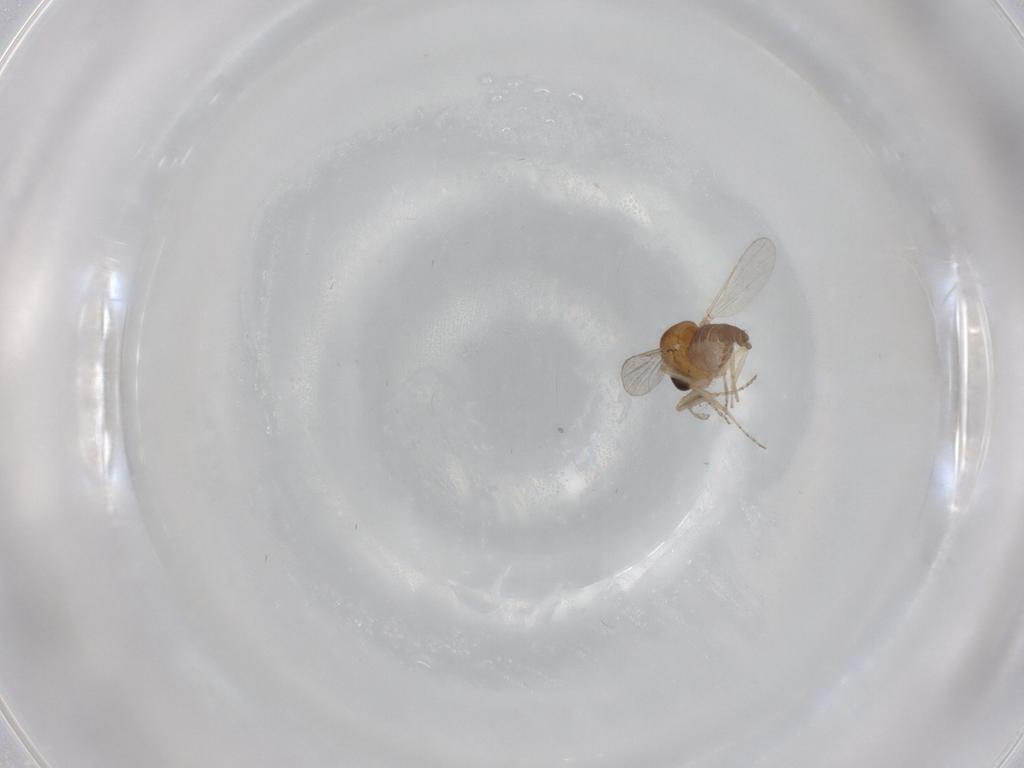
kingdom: Animalia
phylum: Arthropoda
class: Insecta
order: Diptera
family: Ceratopogonidae
